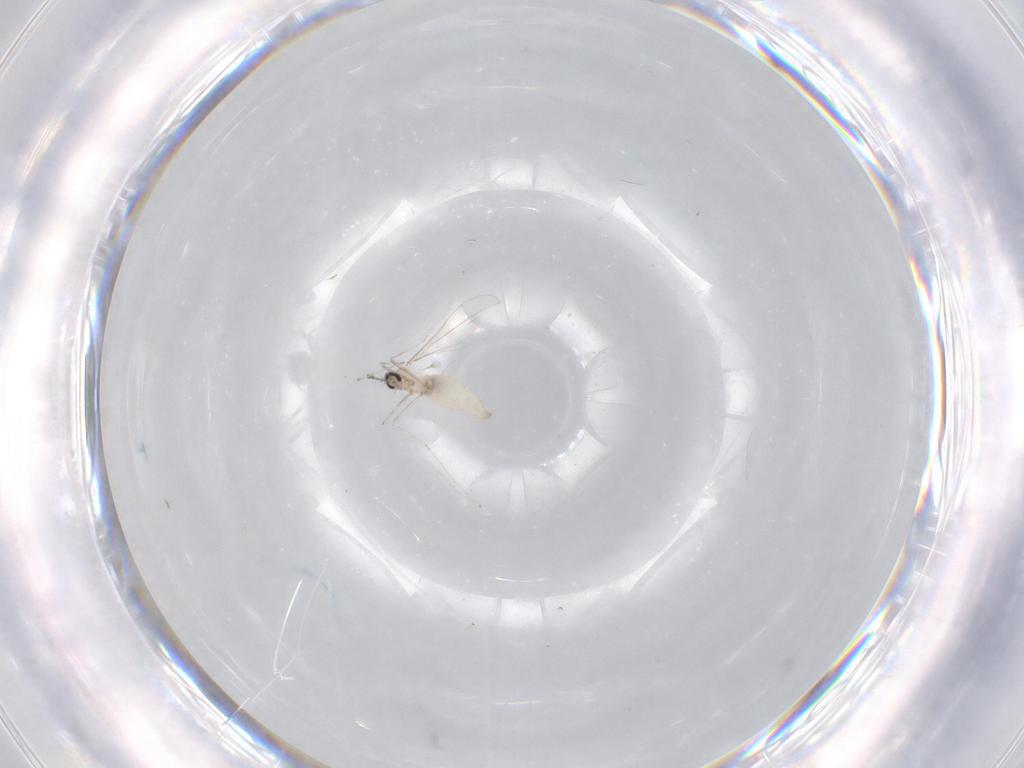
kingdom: Animalia
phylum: Arthropoda
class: Insecta
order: Diptera
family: Cecidomyiidae
